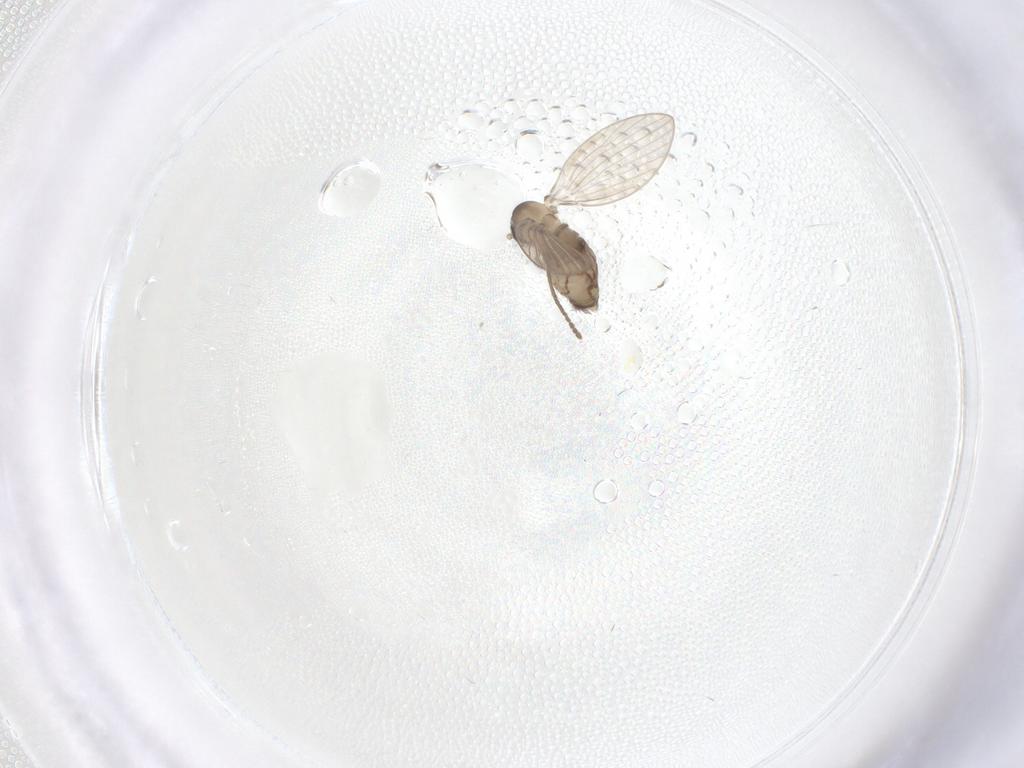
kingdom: Animalia
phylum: Arthropoda
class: Insecta
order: Diptera
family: Psychodidae
